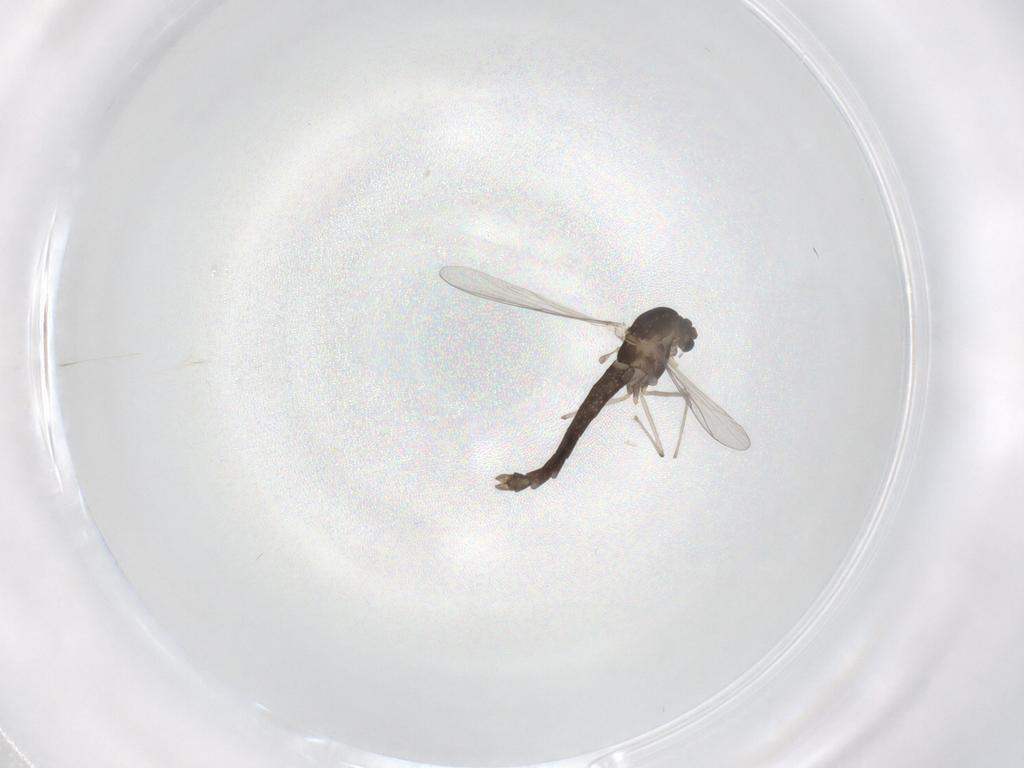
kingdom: Animalia
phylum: Arthropoda
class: Insecta
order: Diptera
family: Chironomidae
